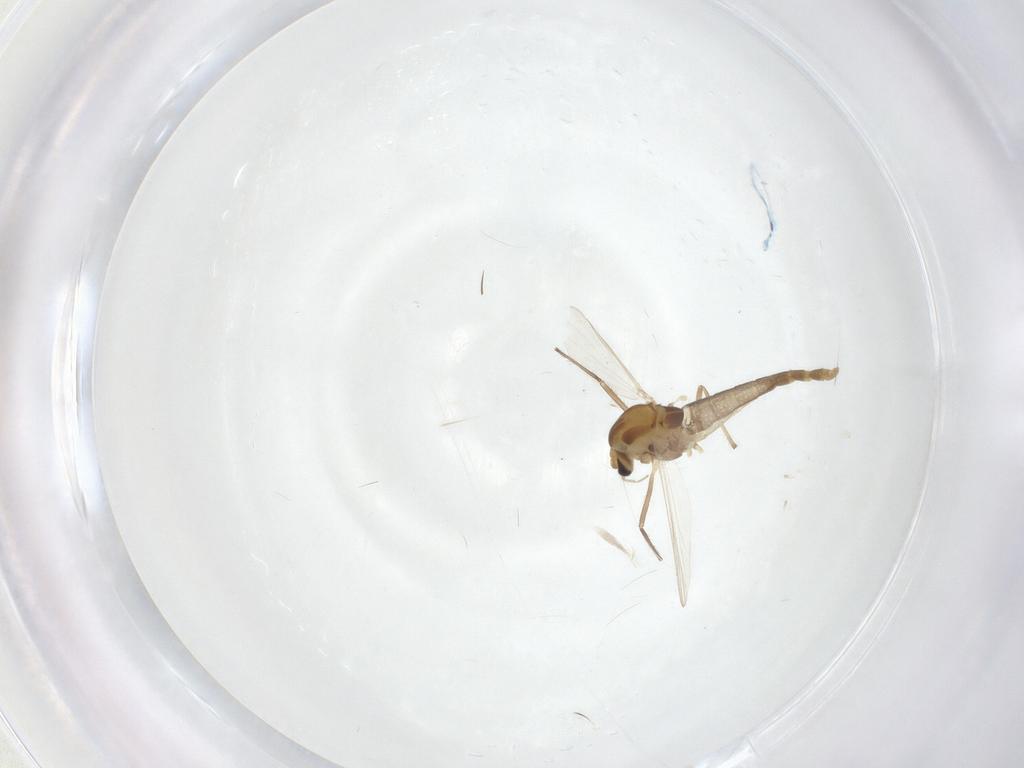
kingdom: Animalia
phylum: Arthropoda
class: Insecta
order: Diptera
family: Chironomidae
